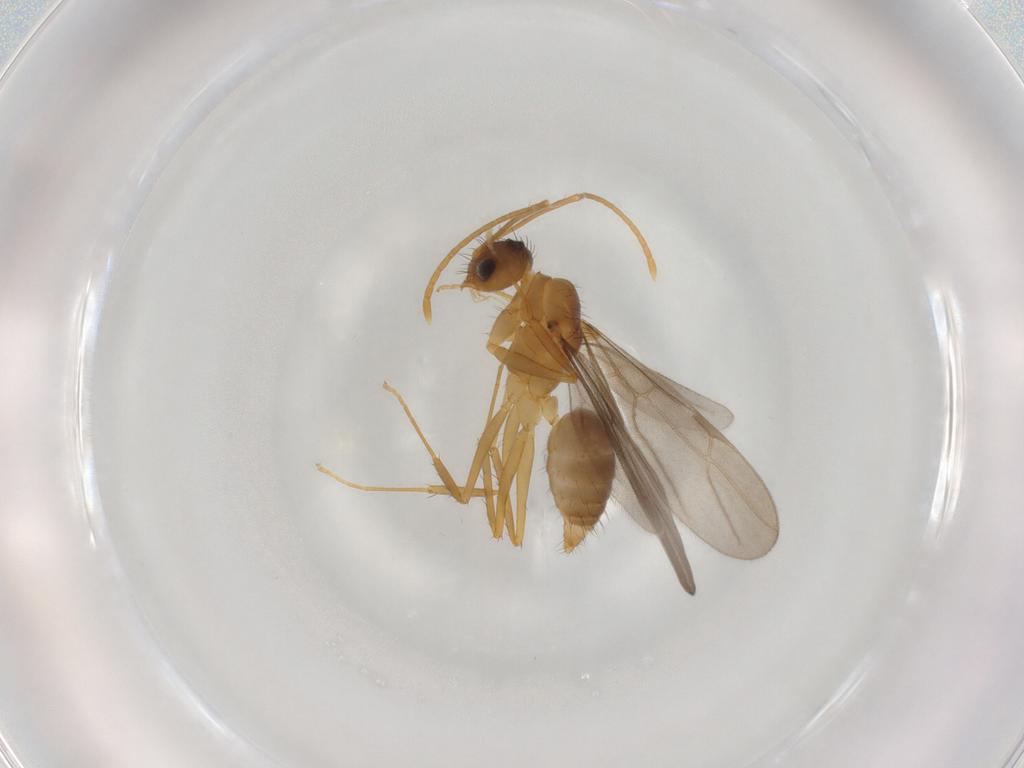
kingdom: Animalia
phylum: Arthropoda
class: Insecta
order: Hymenoptera
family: Formicidae
